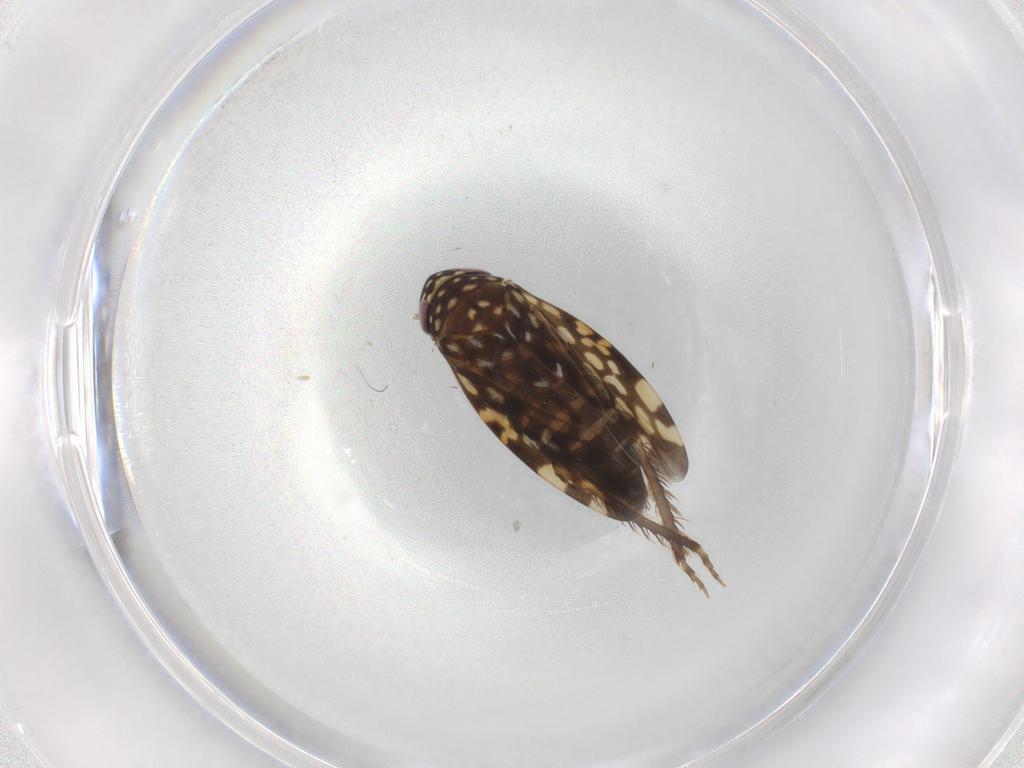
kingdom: Animalia
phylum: Arthropoda
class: Insecta
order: Hemiptera
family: Cicadellidae
